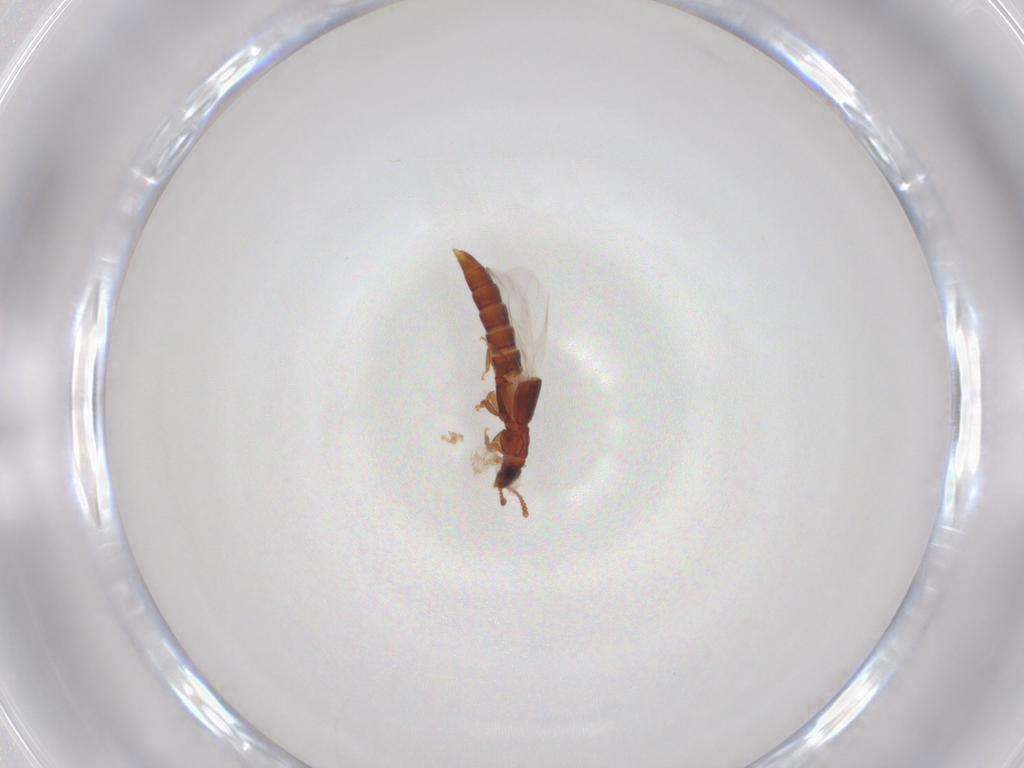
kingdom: Animalia
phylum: Arthropoda
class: Insecta
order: Coleoptera
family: Staphylinidae
